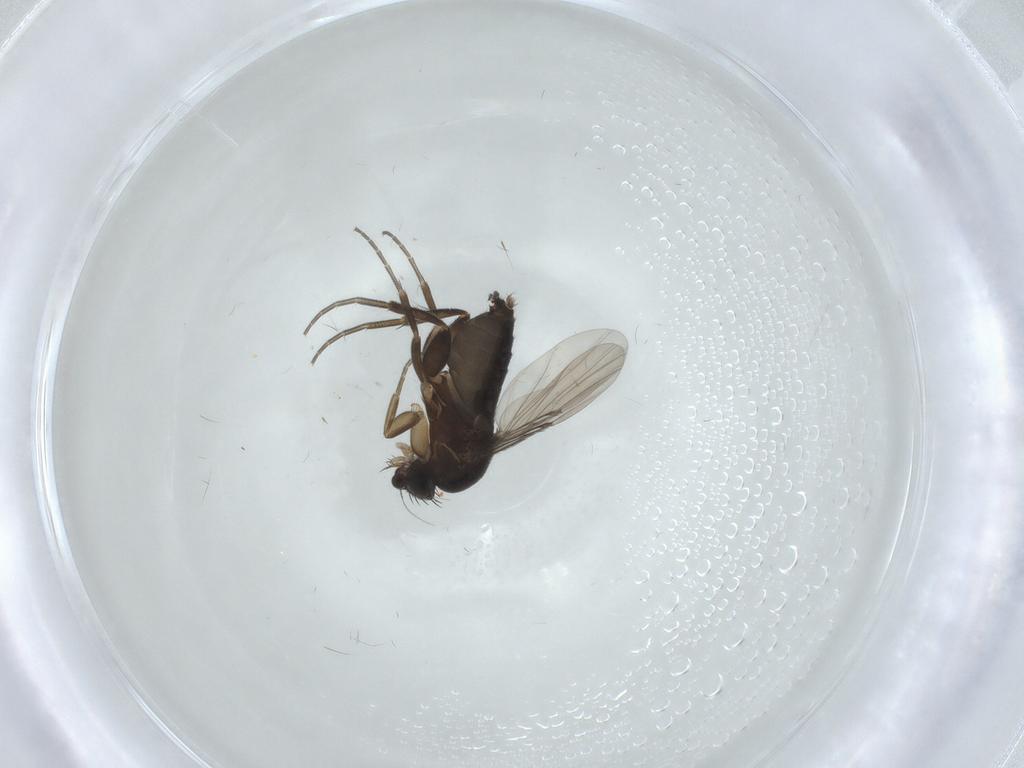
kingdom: Animalia
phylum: Arthropoda
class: Insecta
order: Diptera
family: Phoridae
